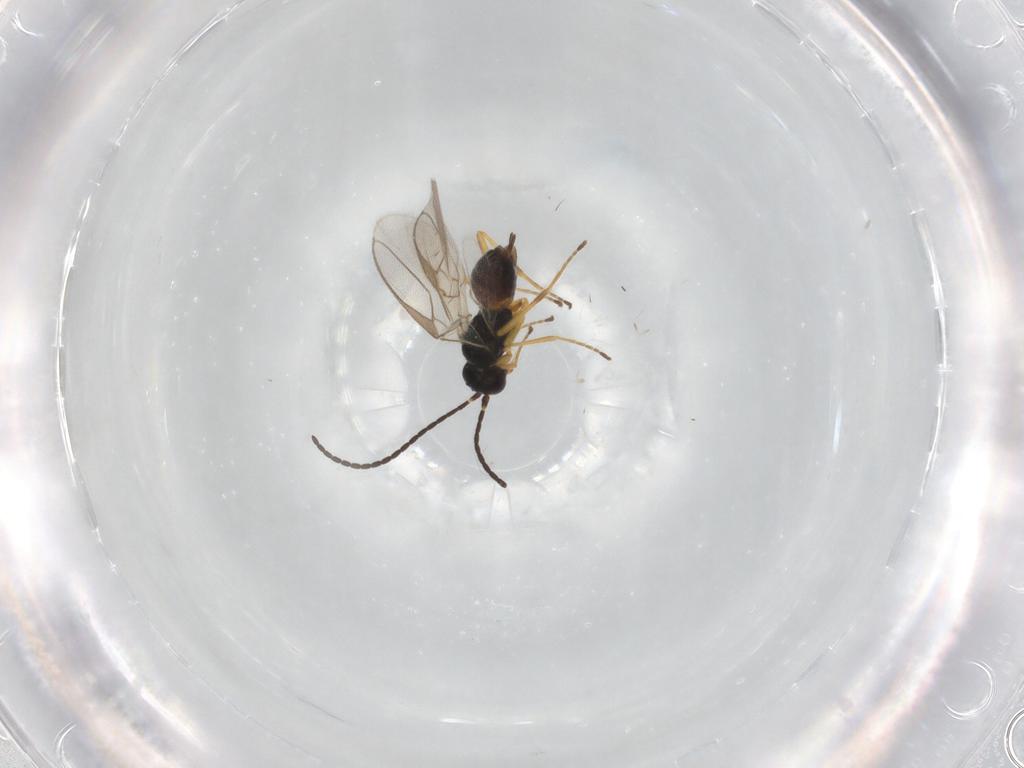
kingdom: Animalia
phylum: Arthropoda
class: Insecta
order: Hymenoptera
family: Braconidae
